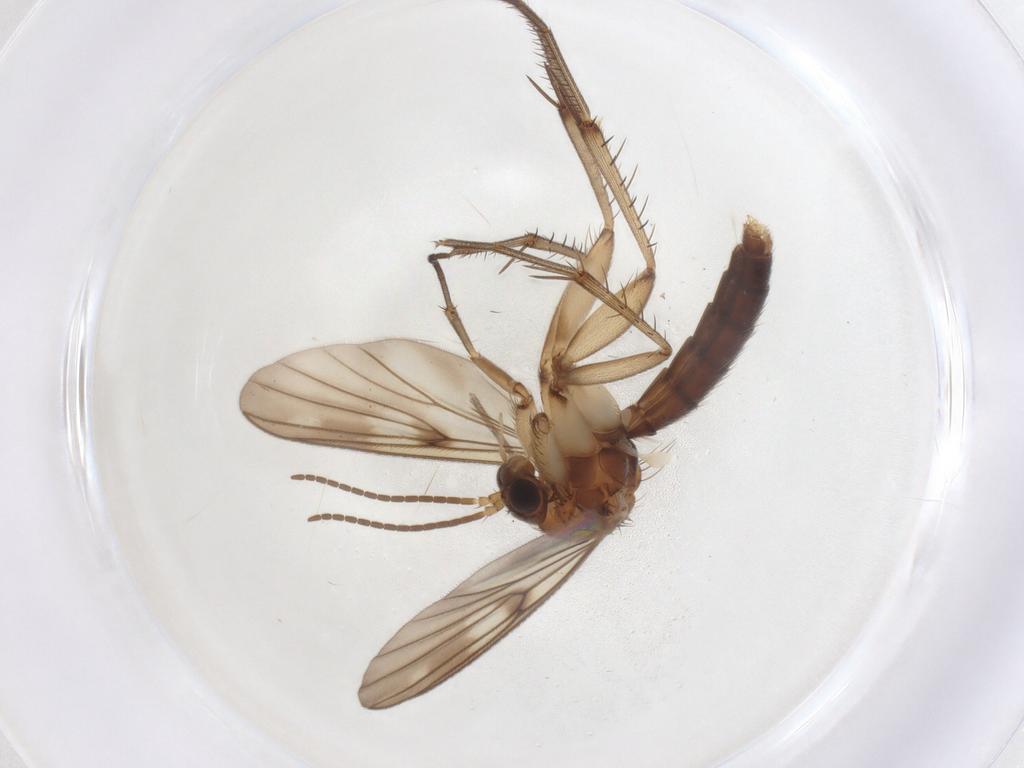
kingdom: Animalia
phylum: Arthropoda
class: Insecta
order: Diptera
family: Mycetophilidae
